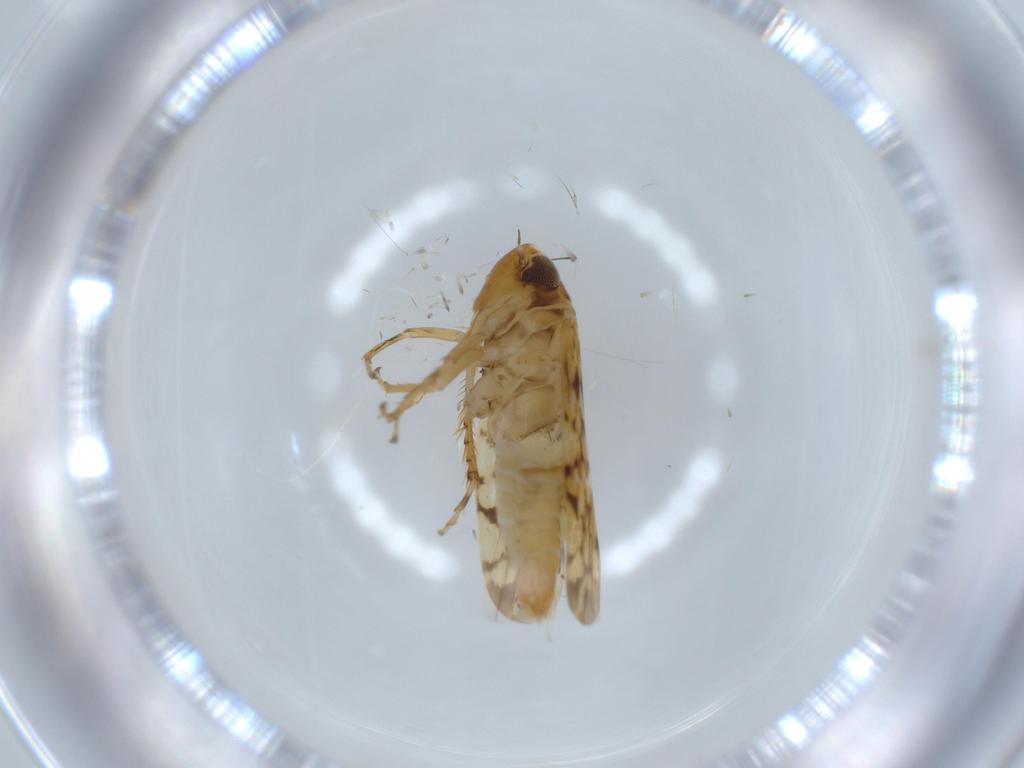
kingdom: Animalia
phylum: Arthropoda
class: Insecta
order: Hemiptera
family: Cicadellidae
